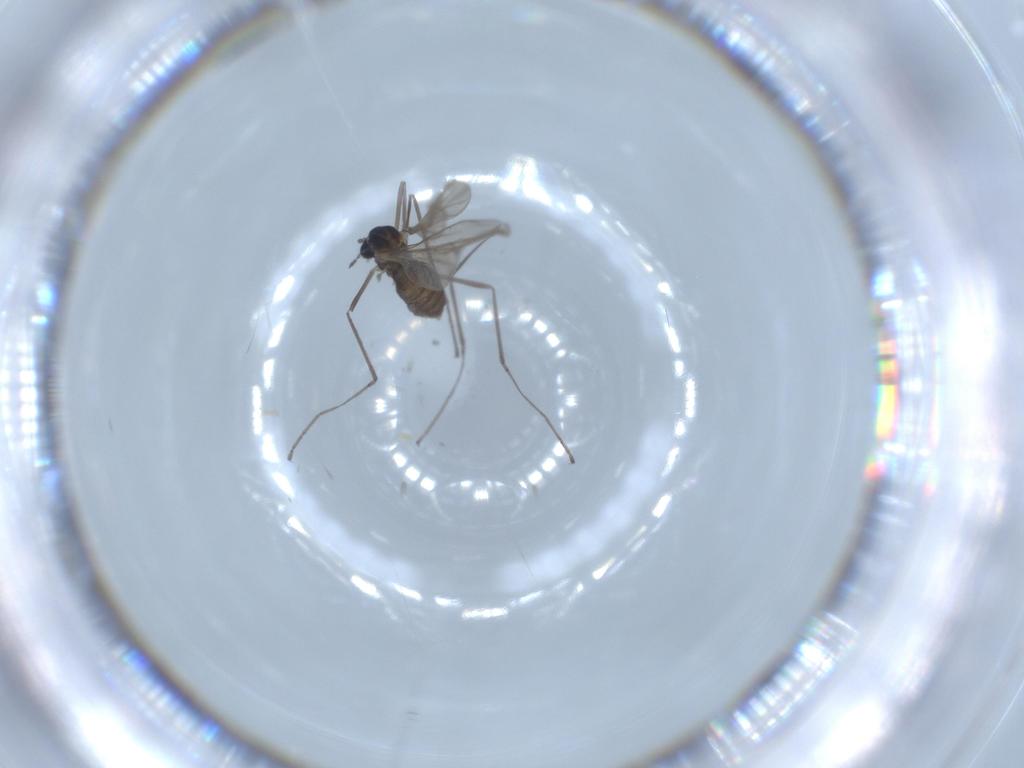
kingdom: Animalia
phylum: Arthropoda
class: Insecta
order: Diptera
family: Cecidomyiidae
